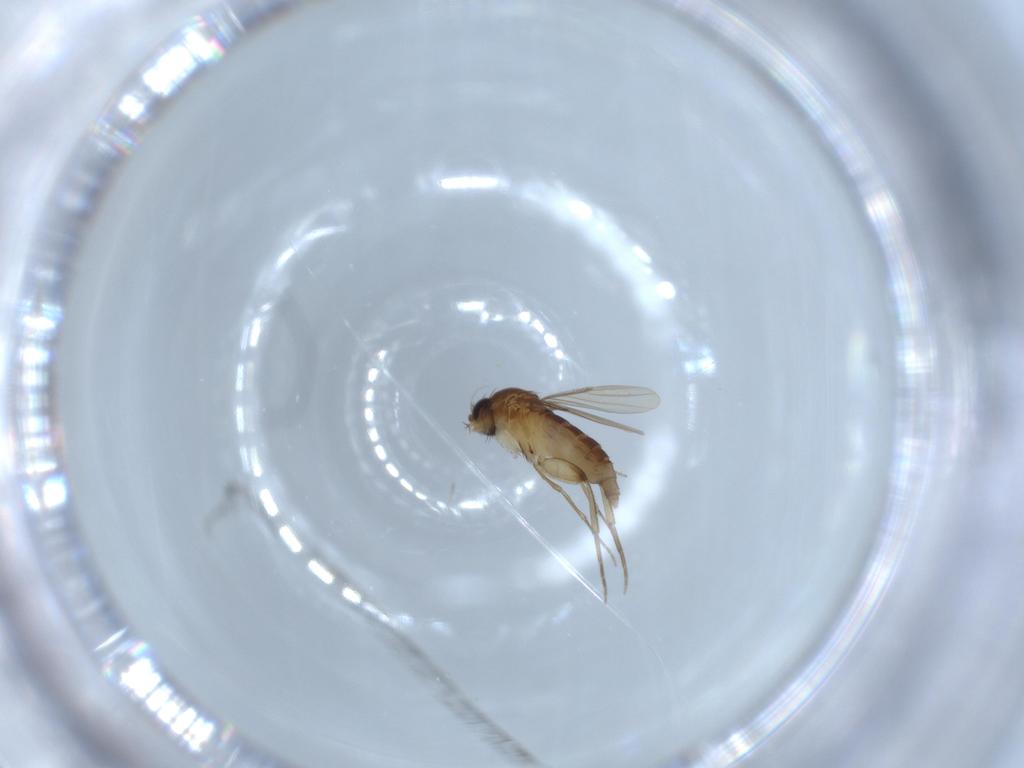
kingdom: Animalia
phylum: Arthropoda
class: Insecta
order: Diptera
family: Phoridae
